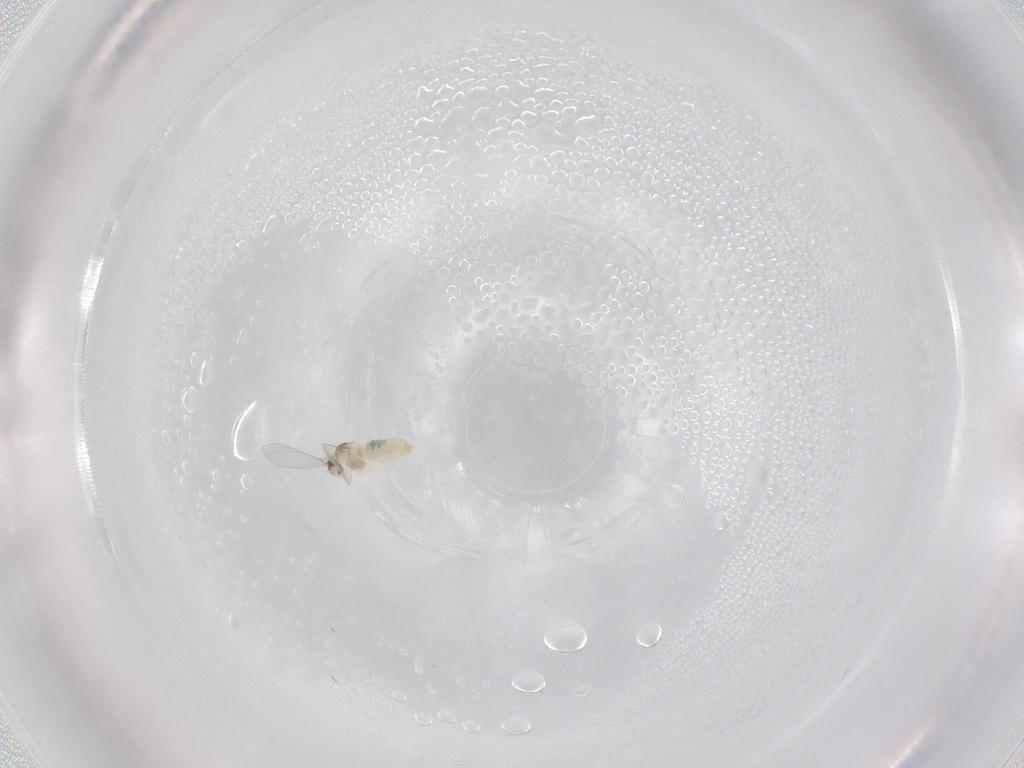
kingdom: Animalia
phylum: Arthropoda
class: Insecta
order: Diptera
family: Cecidomyiidae
